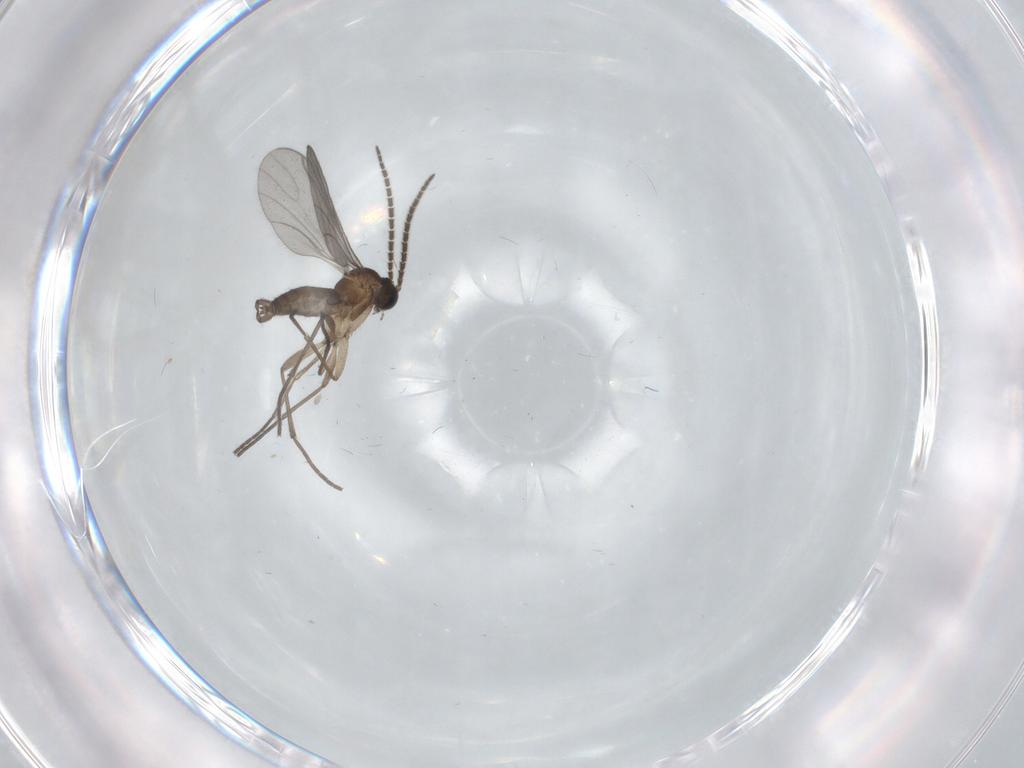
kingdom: Animalia
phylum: Arthropoda
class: Insecta
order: Diptera
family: Sciaridae
